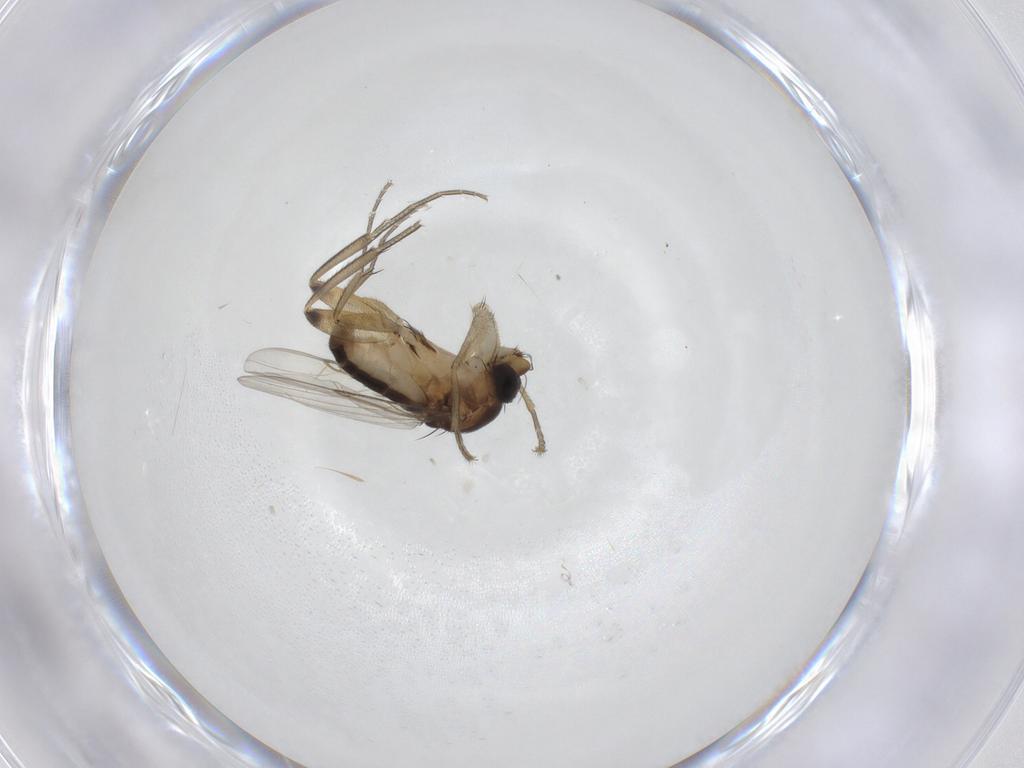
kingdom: Animalia
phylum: Arthropoda
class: Insecta
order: Diptera
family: Phoridae
